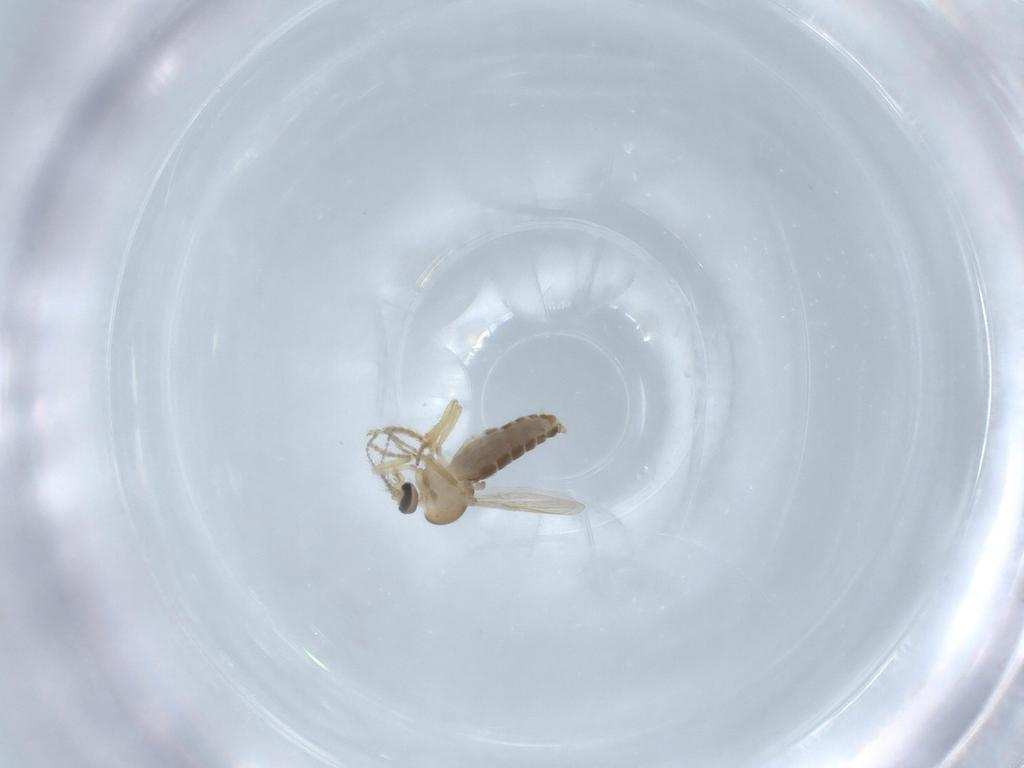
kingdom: Animalia
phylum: Arthropoda
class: Insecta
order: Diptera
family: Ceratopogonidae
